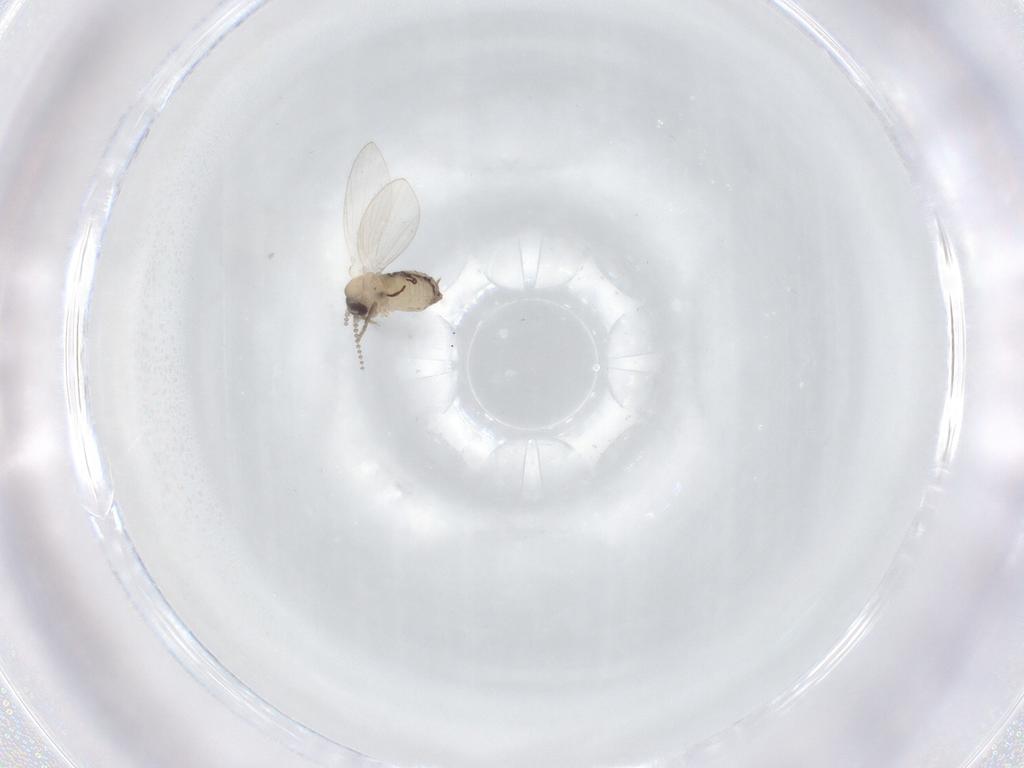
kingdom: Animalia
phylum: Arthropoda
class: Insecta
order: Diptera
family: Psychodidae
